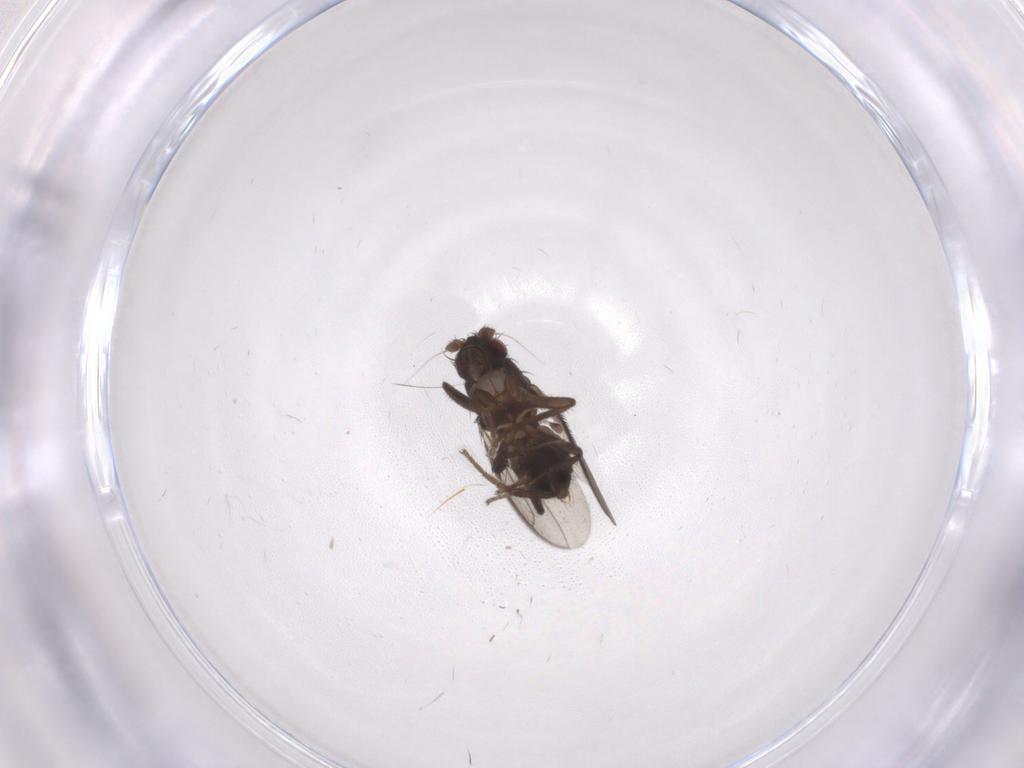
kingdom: Animalia
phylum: Arthropoda
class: Insecta
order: Diptera
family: Sphaeroceridae
